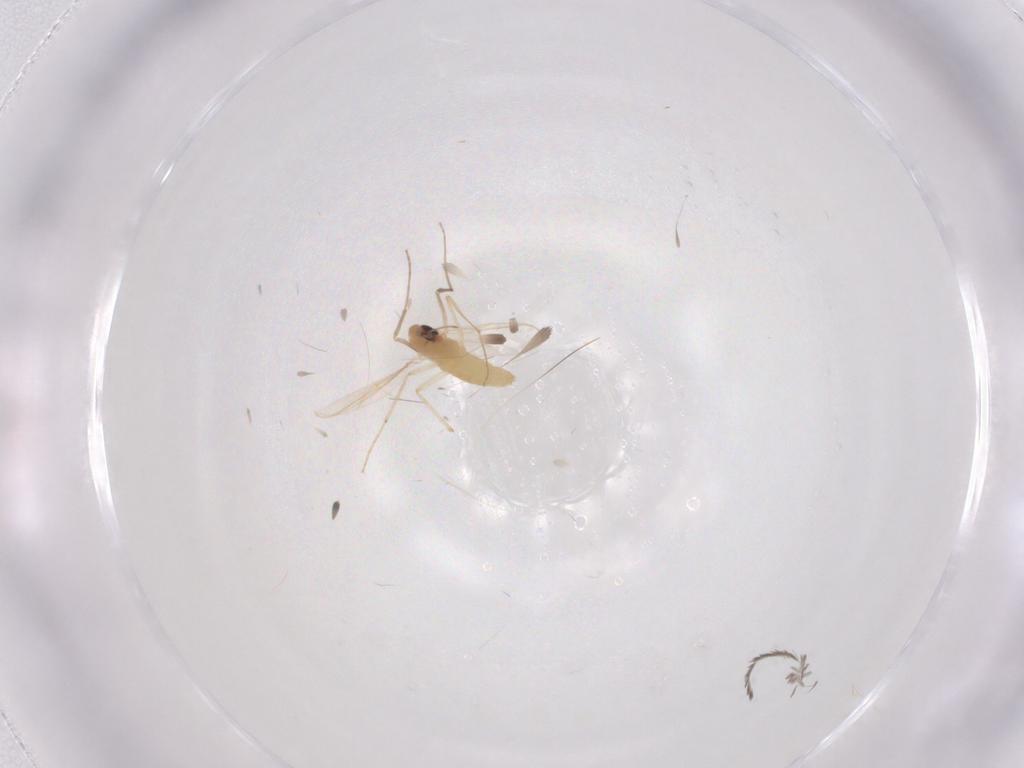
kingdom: Animalia
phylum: Arthropoda
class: Insecta
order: Diptera
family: Chironomidae
